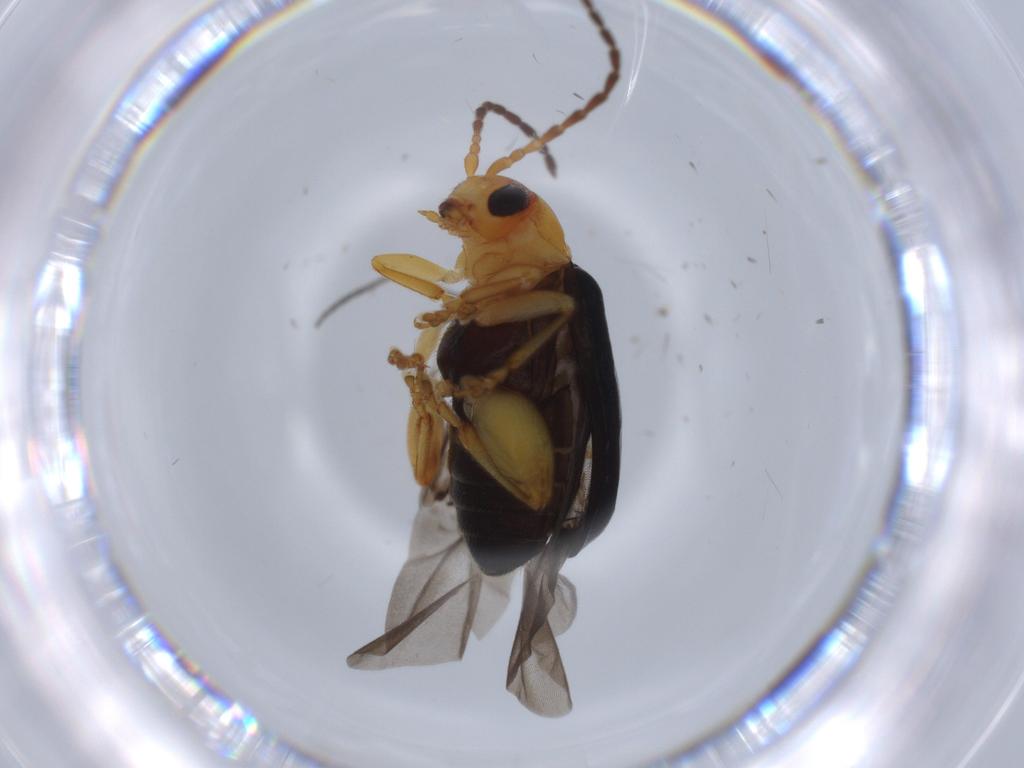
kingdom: Animalia
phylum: Arthropoda
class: Insecta
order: Coleoptera
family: Chrysomelidae
